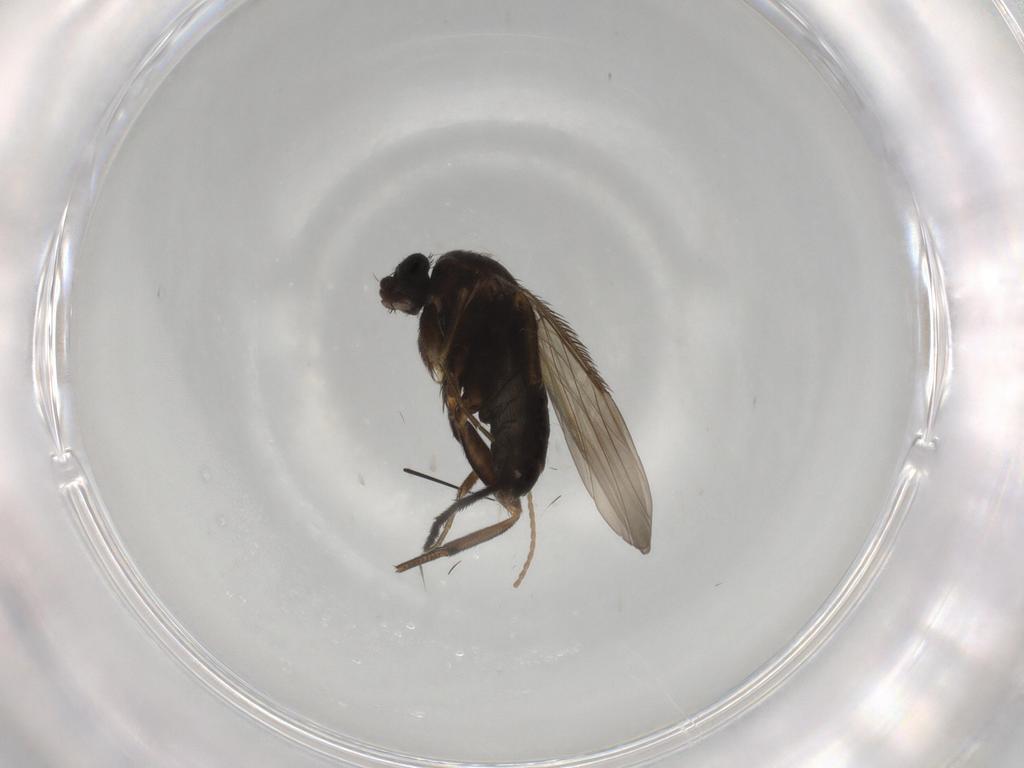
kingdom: Animalia
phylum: Arthropoda
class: Insecta
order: Diptera
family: Phoridae
